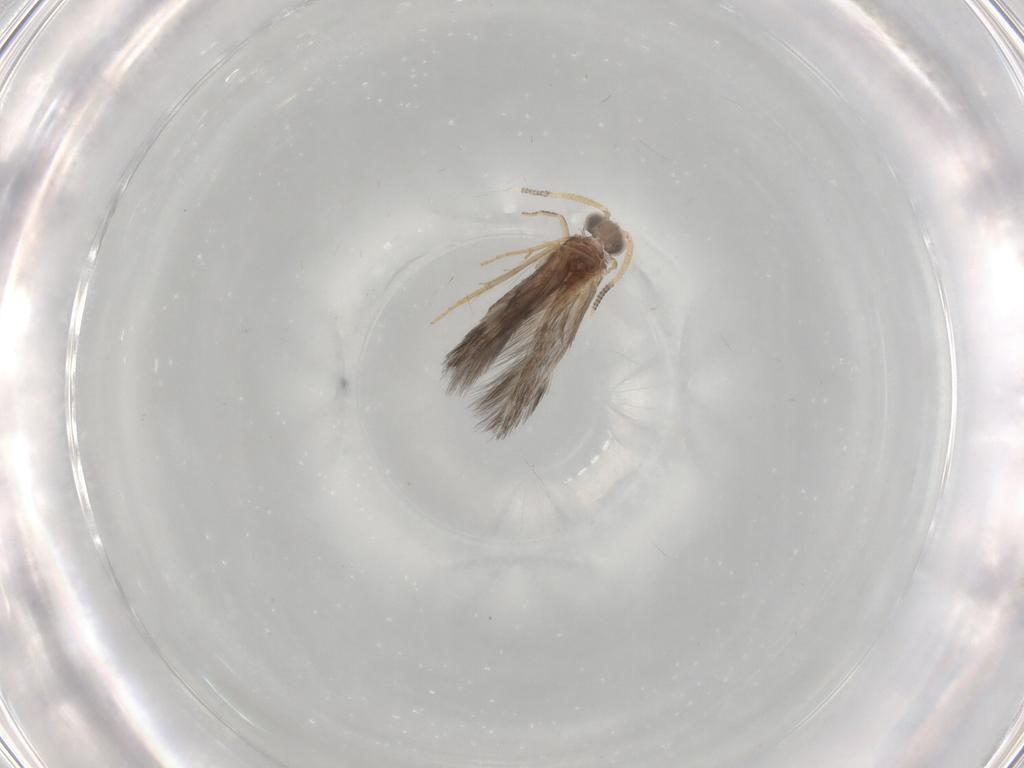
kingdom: Animalia
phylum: Arthropoda
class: Insecta
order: Trichoptera
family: Hydroptilidae
